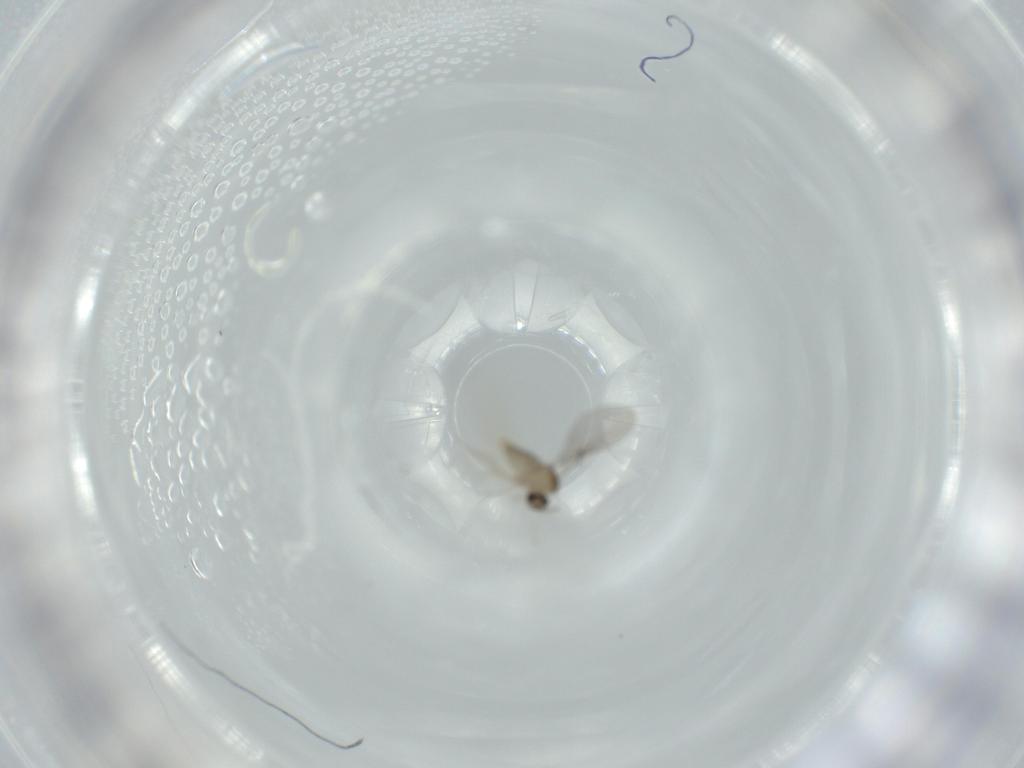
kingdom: Animalia
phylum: Arthropoda
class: Insecta
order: Diptera
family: Cecidomyiidae
